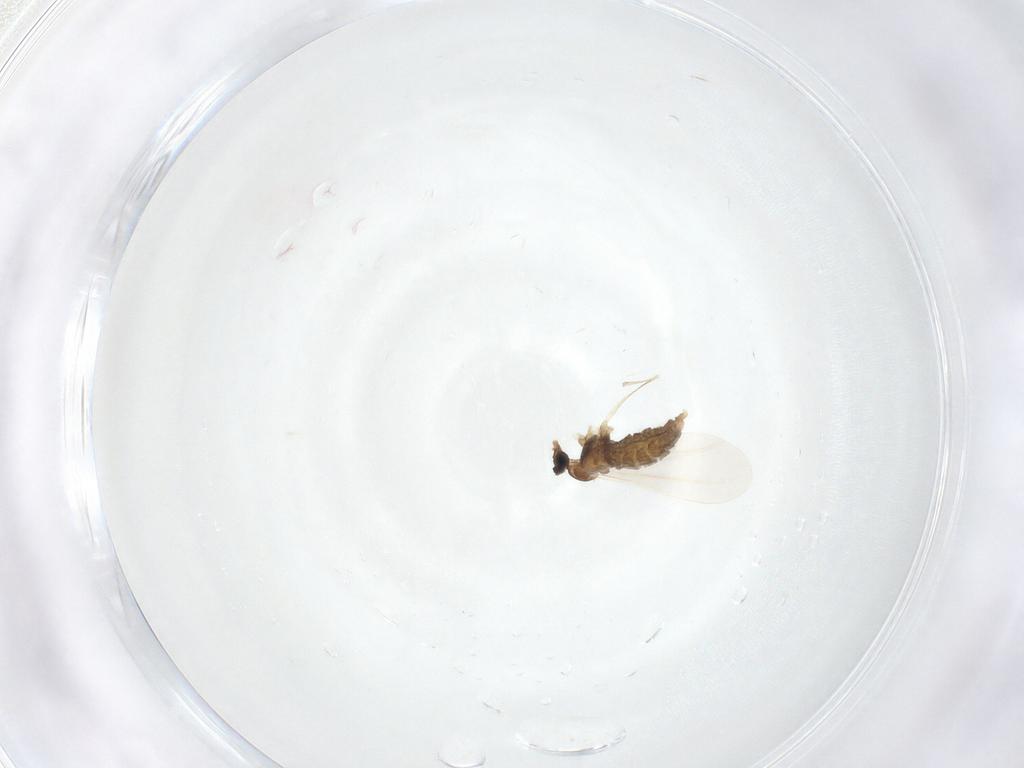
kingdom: Animalia
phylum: Arthropoda
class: Insecta
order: Diptera
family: Cecidomyiidae
